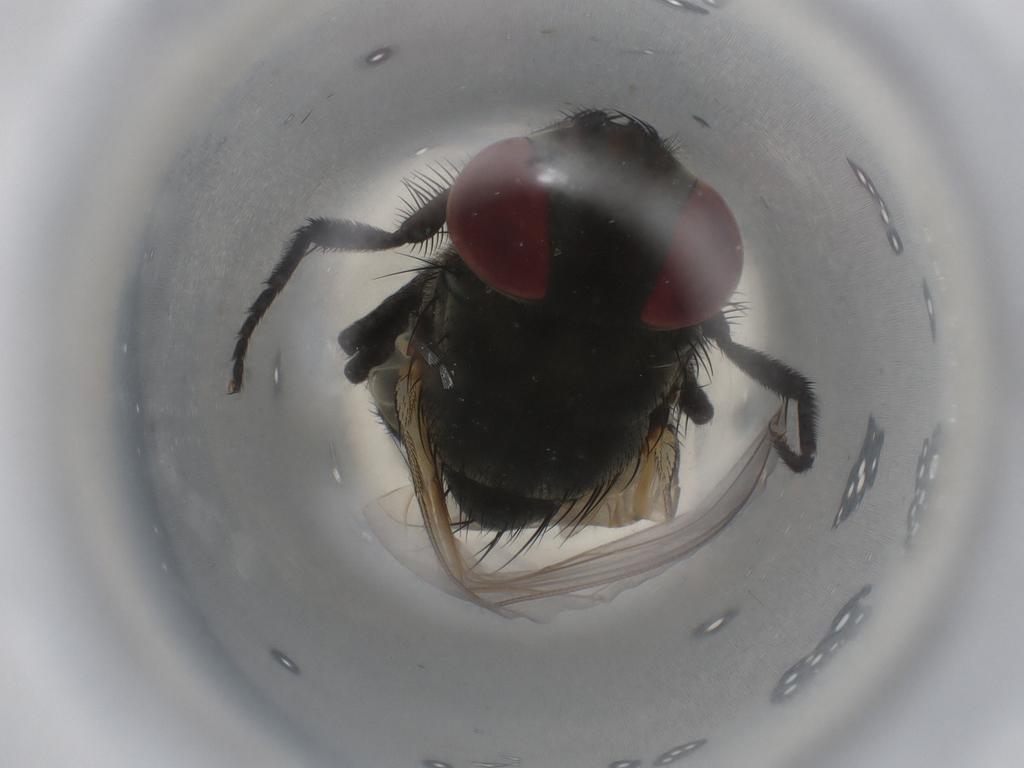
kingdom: Animalia
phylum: Arthropoda
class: Insecta
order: Diptera
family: Muscidae
